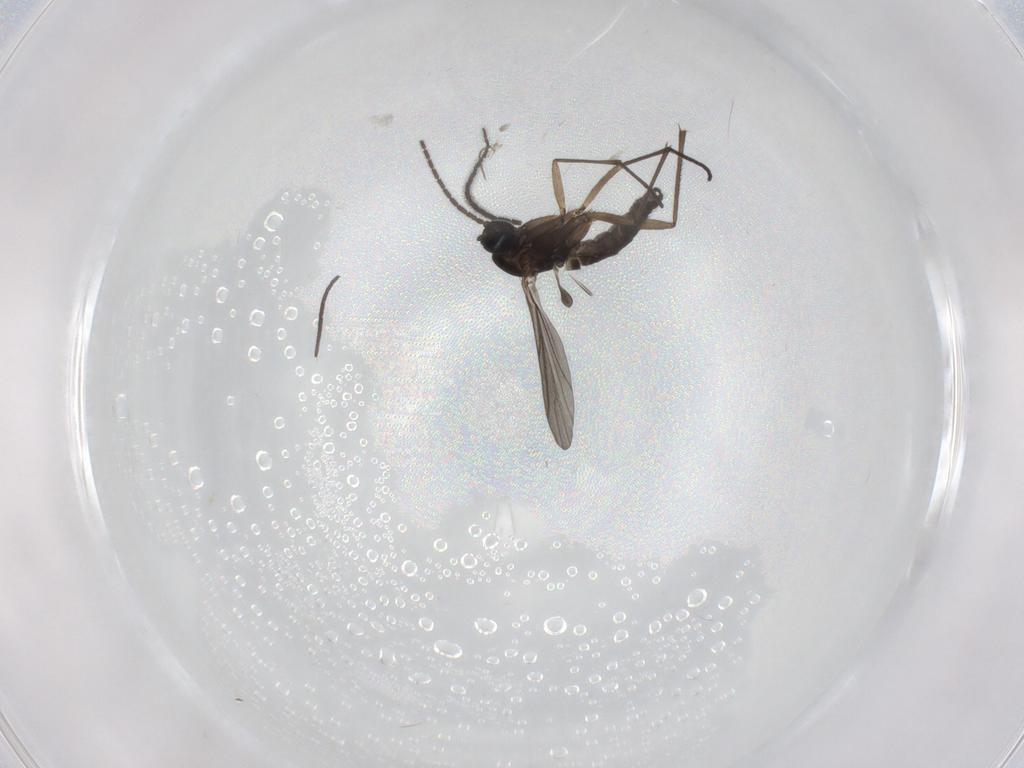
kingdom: Animalia
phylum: Arthropoda
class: Insecta
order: Diptera
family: Sciaridae
